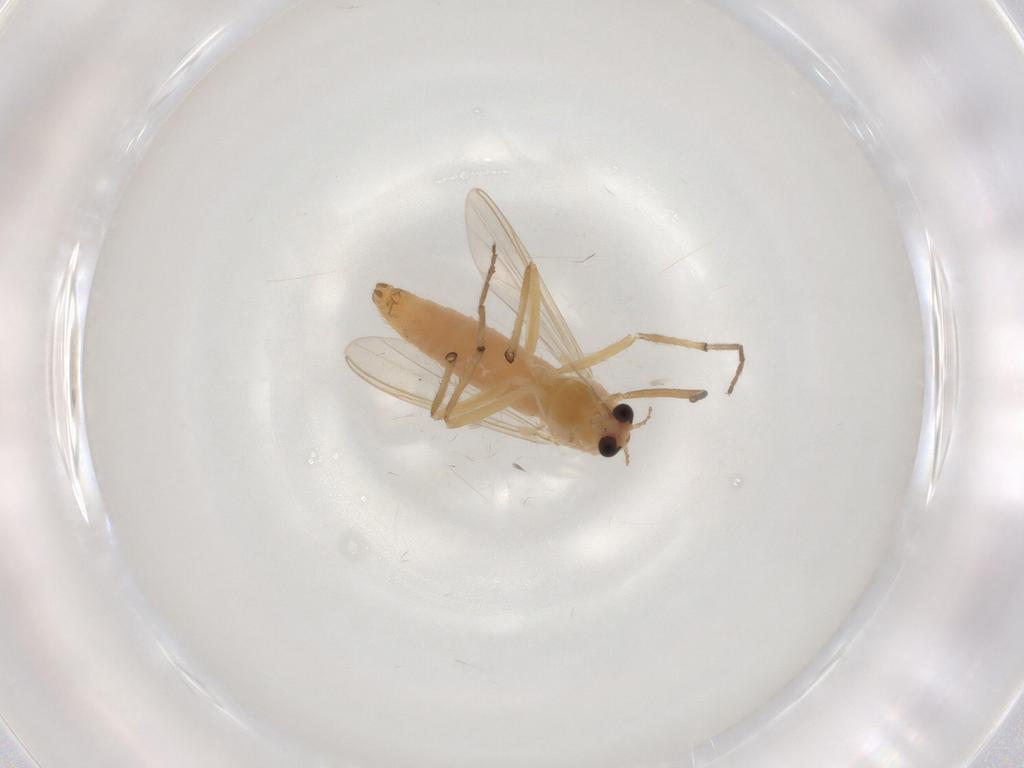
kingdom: Animalia
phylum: Arthropoda
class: Insecta
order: Diptera
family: Chironomidae
